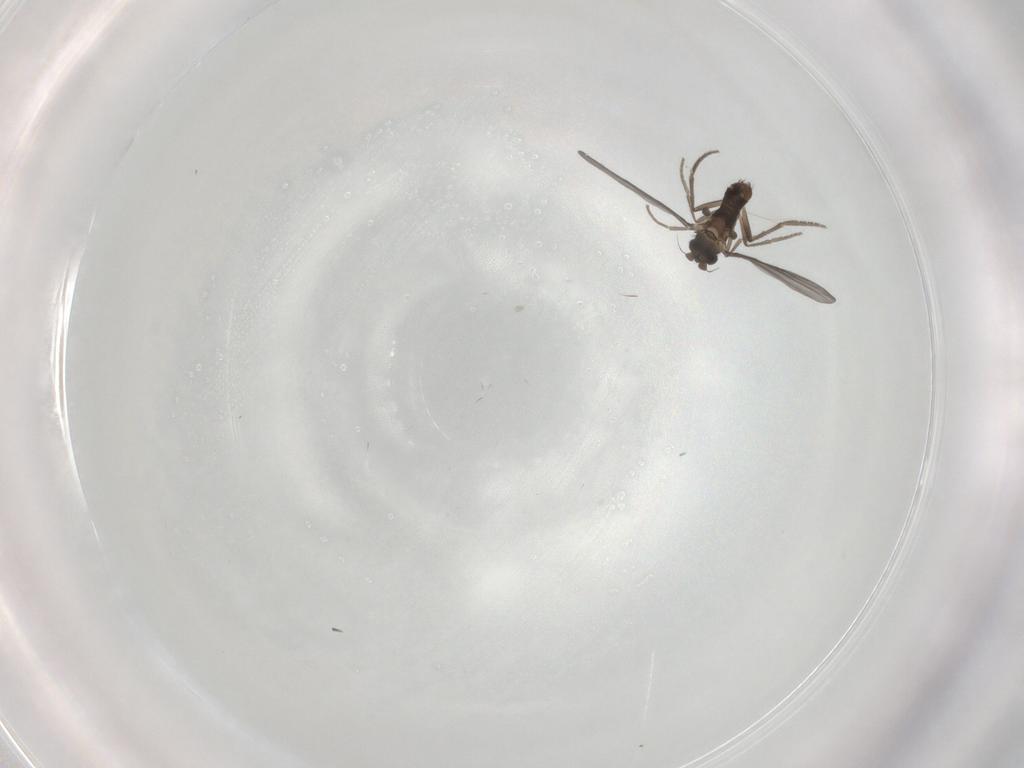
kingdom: Animalia
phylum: Arthropoda
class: Insecta
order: Diptera
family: Phoridae
